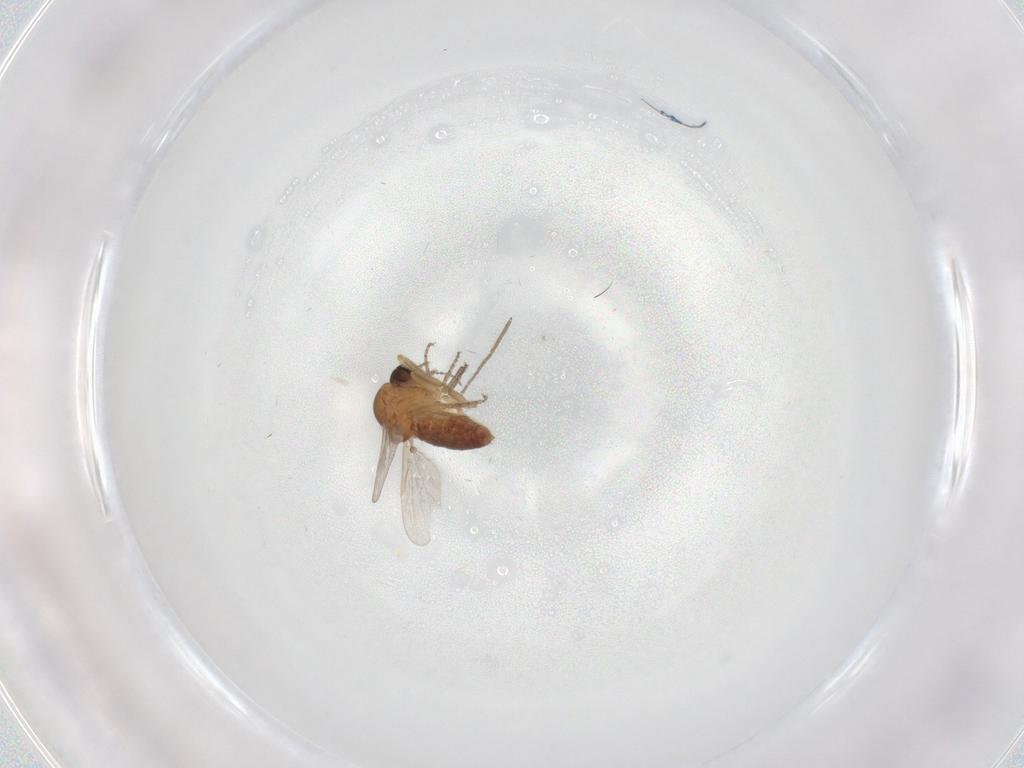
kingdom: Animalia
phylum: Arthropoda
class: Insecta
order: Diptera
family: Ceratopogonidae
